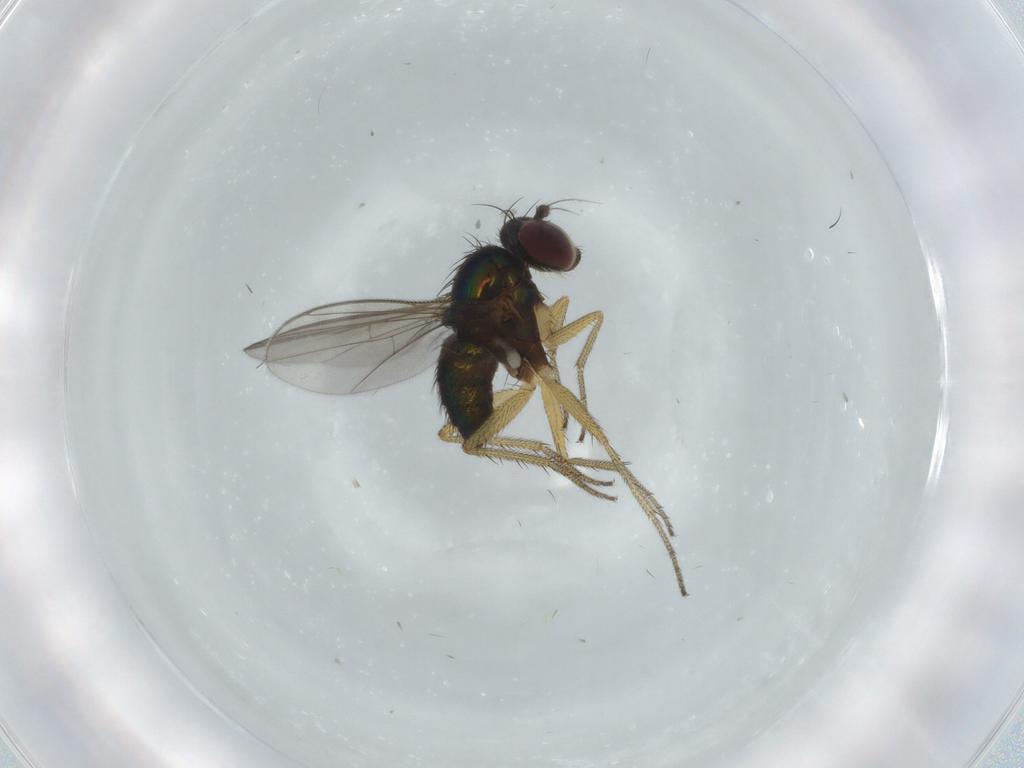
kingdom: Animalia
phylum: Arthropoda
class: Insecta
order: Diptera
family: Dolichopodidae
